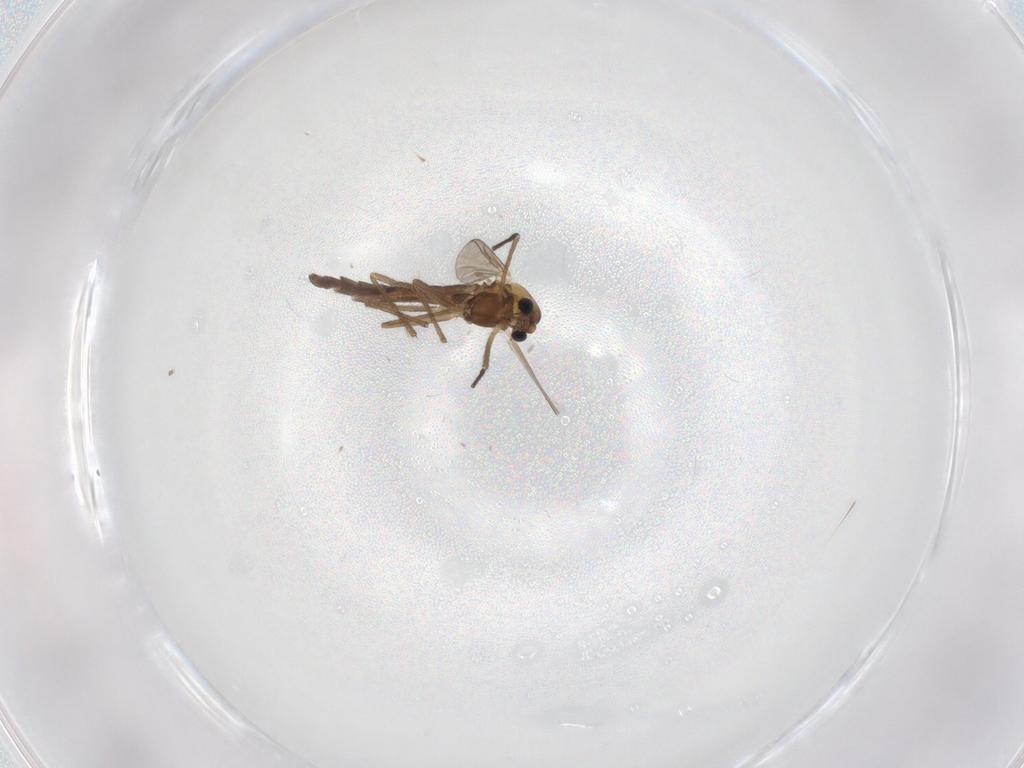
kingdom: Animalia
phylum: Arthropoda
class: Insecta
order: Diptera
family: Chironomidae
